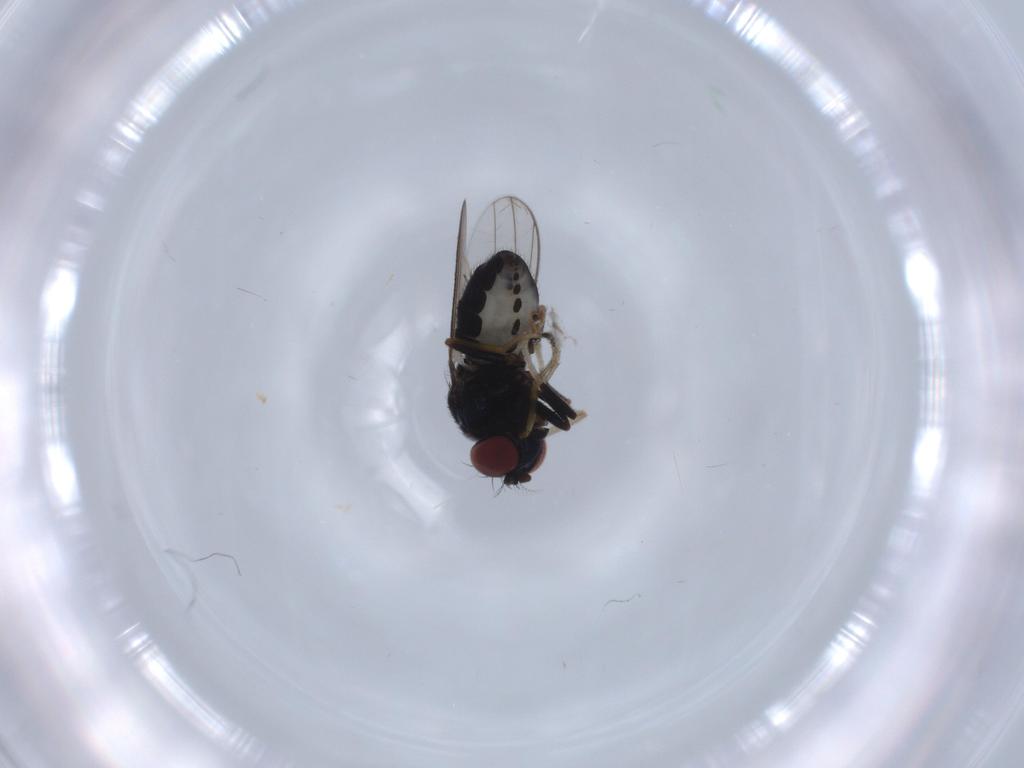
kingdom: Animalia
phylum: Arthropoda
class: Insecta
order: Diptera
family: Ephydridae
